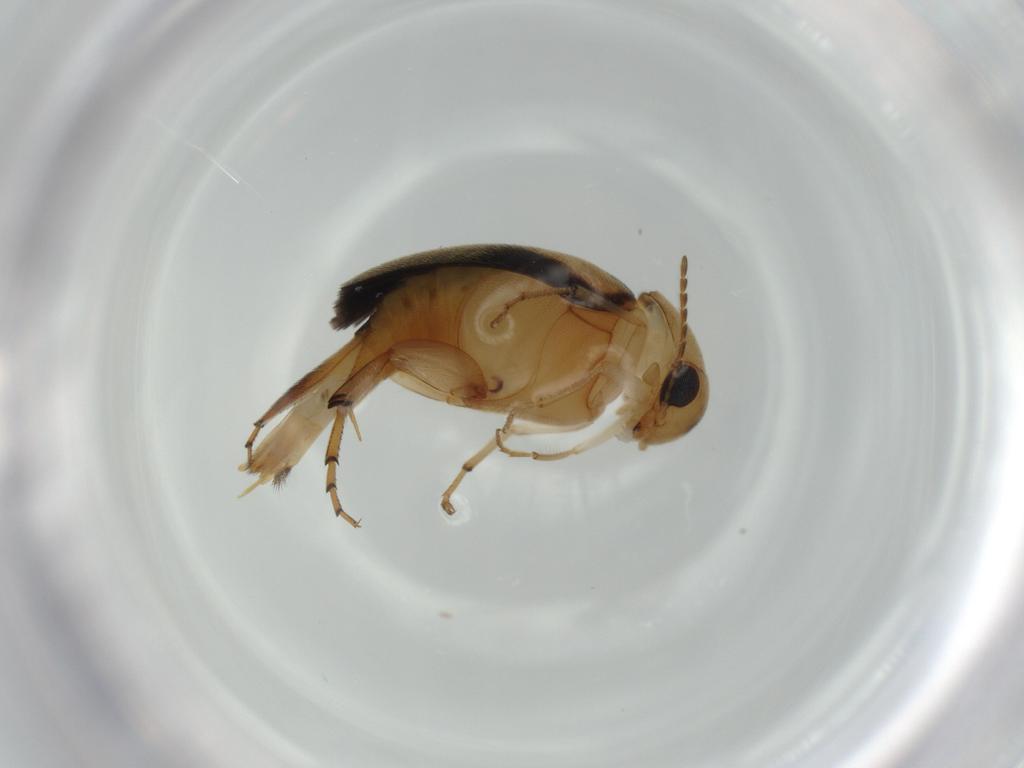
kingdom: Animalia
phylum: Arthropoda
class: Insecta
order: Coleoptera
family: Mordellidae
